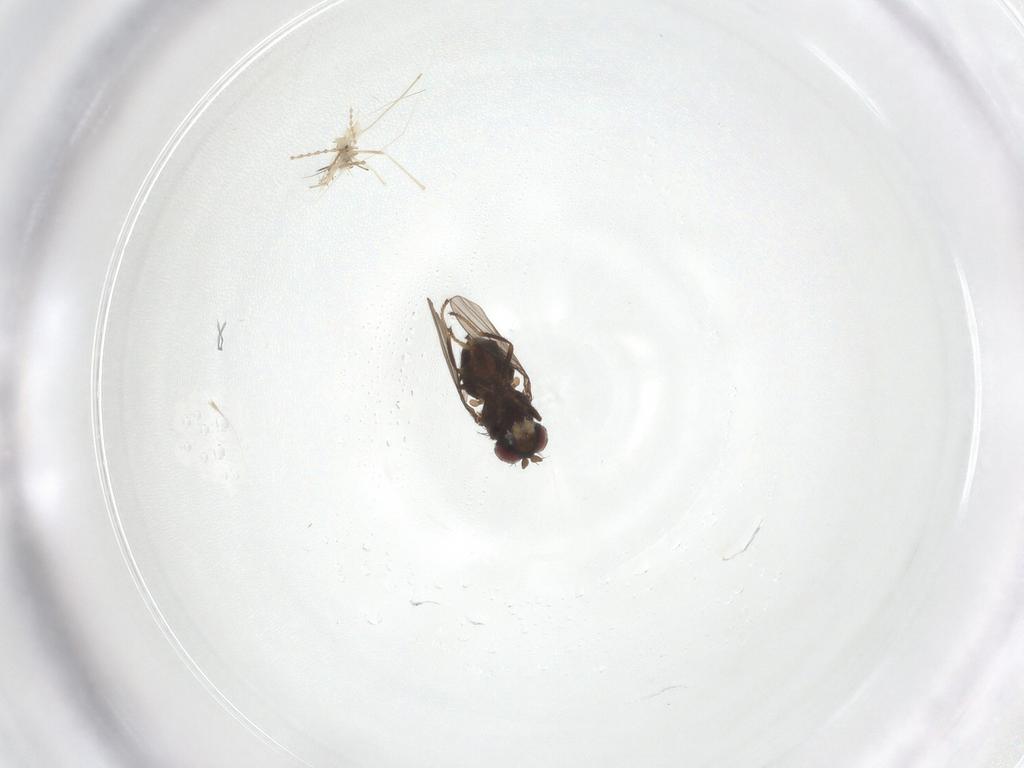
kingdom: Animalia
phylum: Arthropoda
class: Insecta
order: Diptera
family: Ephydridae
